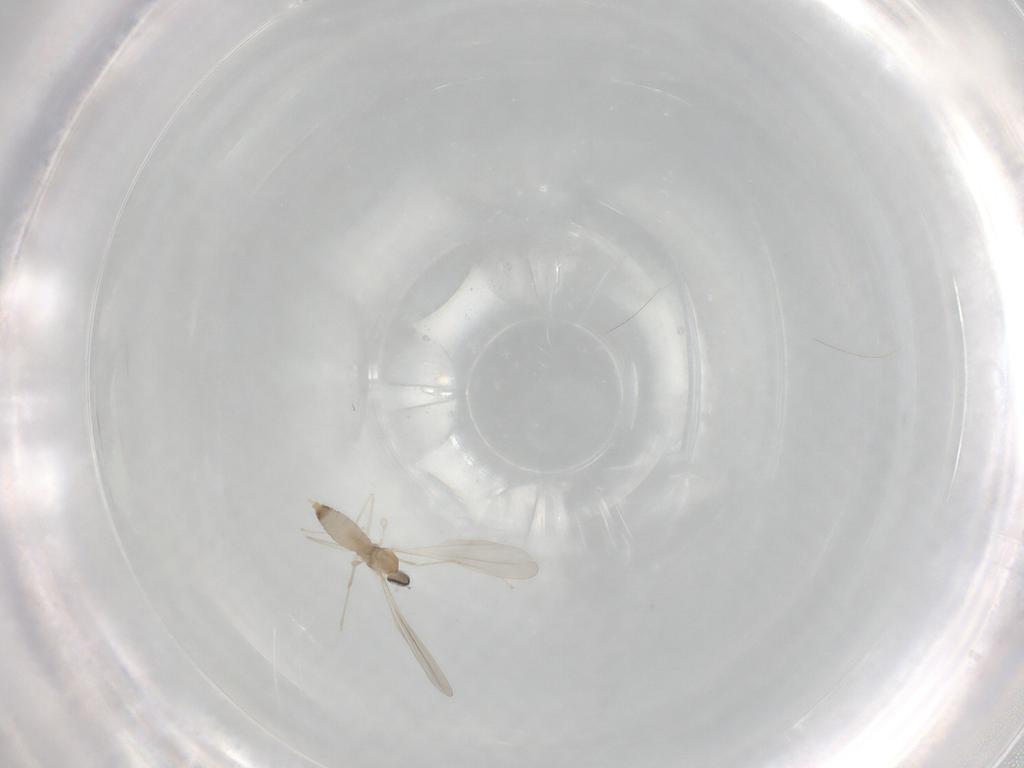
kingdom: Animalia
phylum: Arthropoda
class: Insecta
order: Diptera
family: Cecidomyiidae
